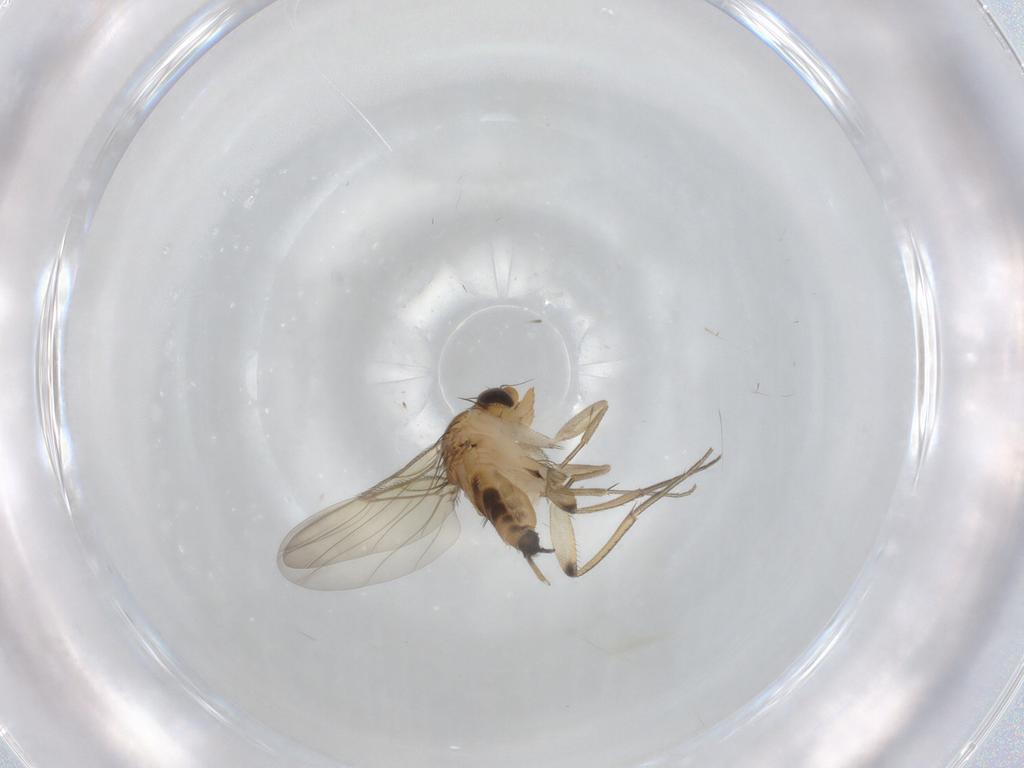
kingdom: Animalia
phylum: Arthropoda
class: Insecta
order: Diptera
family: Phoridae
